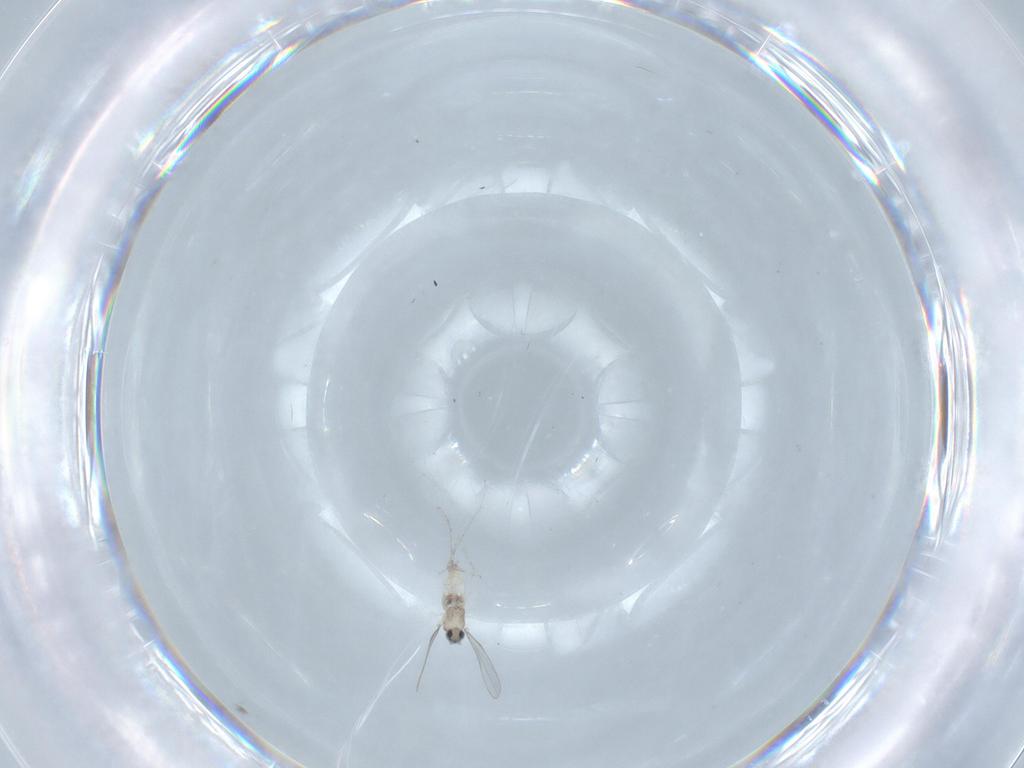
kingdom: Animalia
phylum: Arthropoda
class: Insecta
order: Diptera
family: Cecidomyiidae
